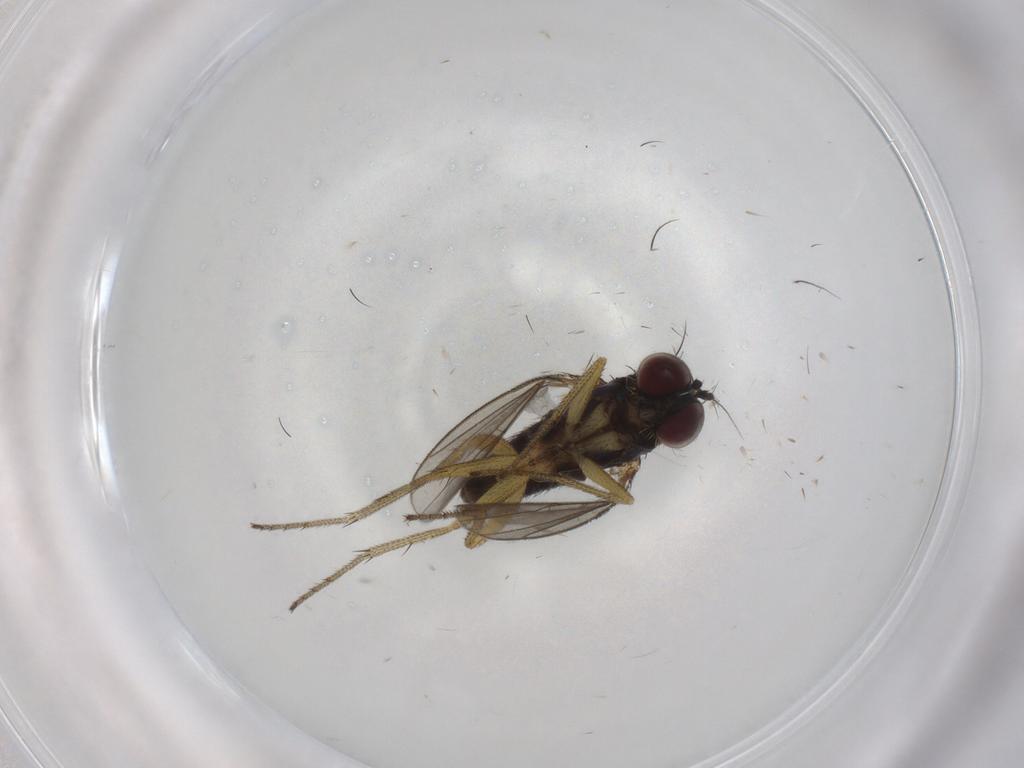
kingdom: Animalia
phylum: Arthropoda
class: Insecta
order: Diptera
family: Dolichopodidae
